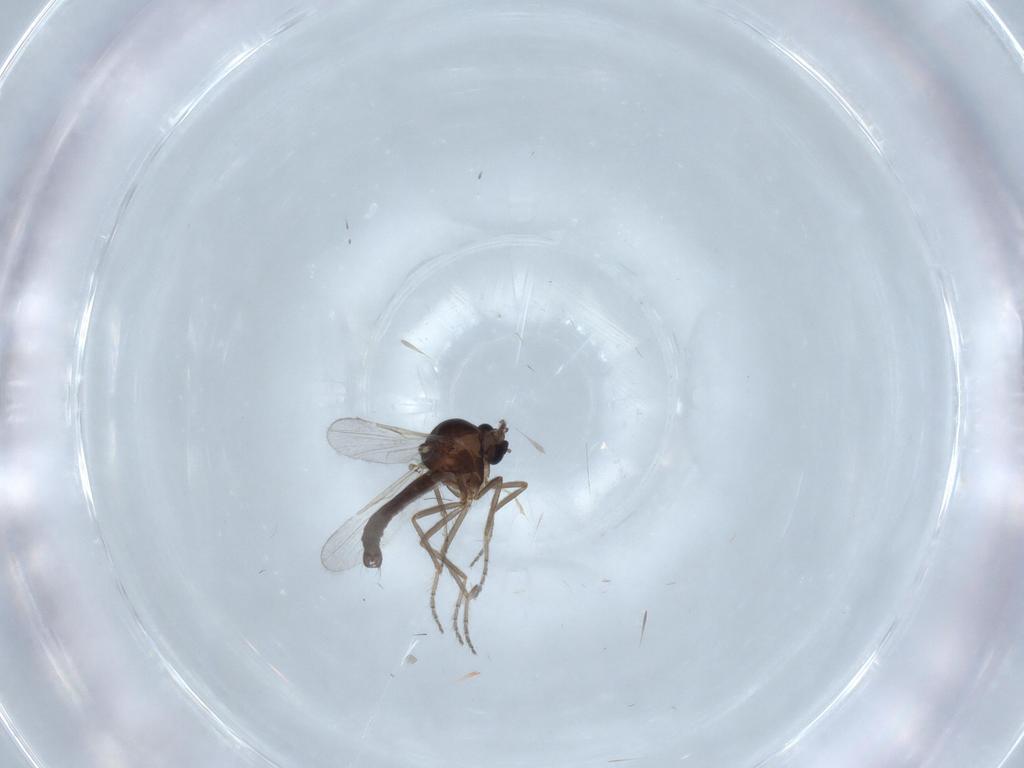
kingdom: Animalia
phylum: Arthropoda
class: Insecta
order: Diptera
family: Ceratopogonidae
